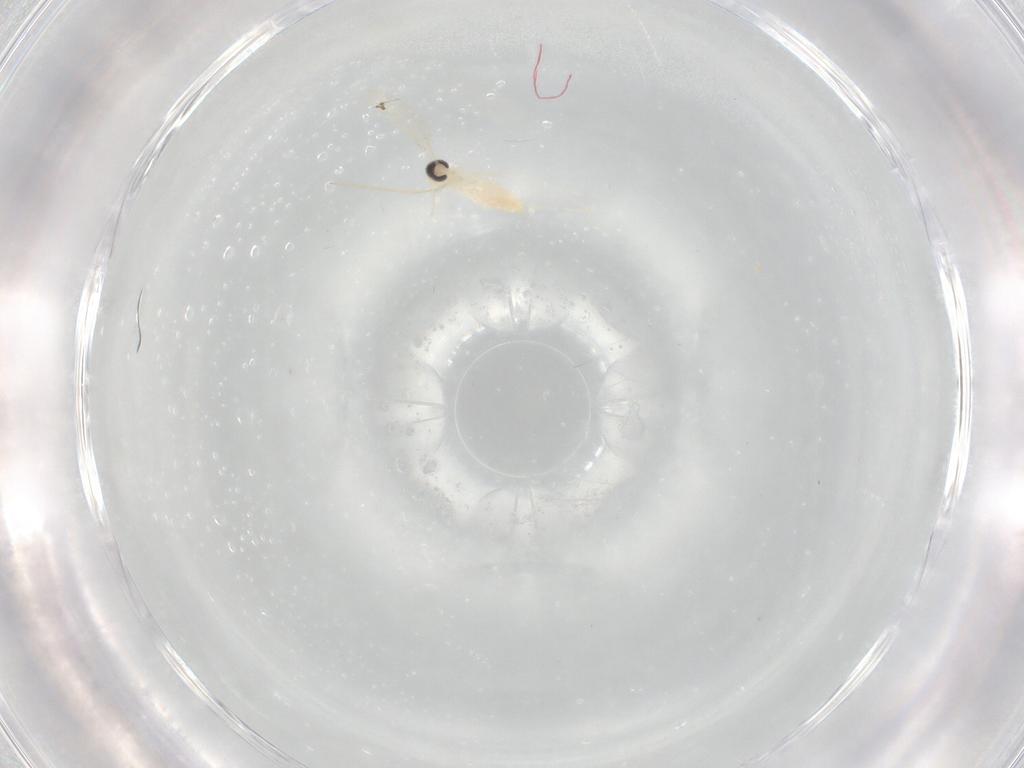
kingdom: Animalia
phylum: Arthropoda
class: Insecta
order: Diptera
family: Cecidomyiidae
